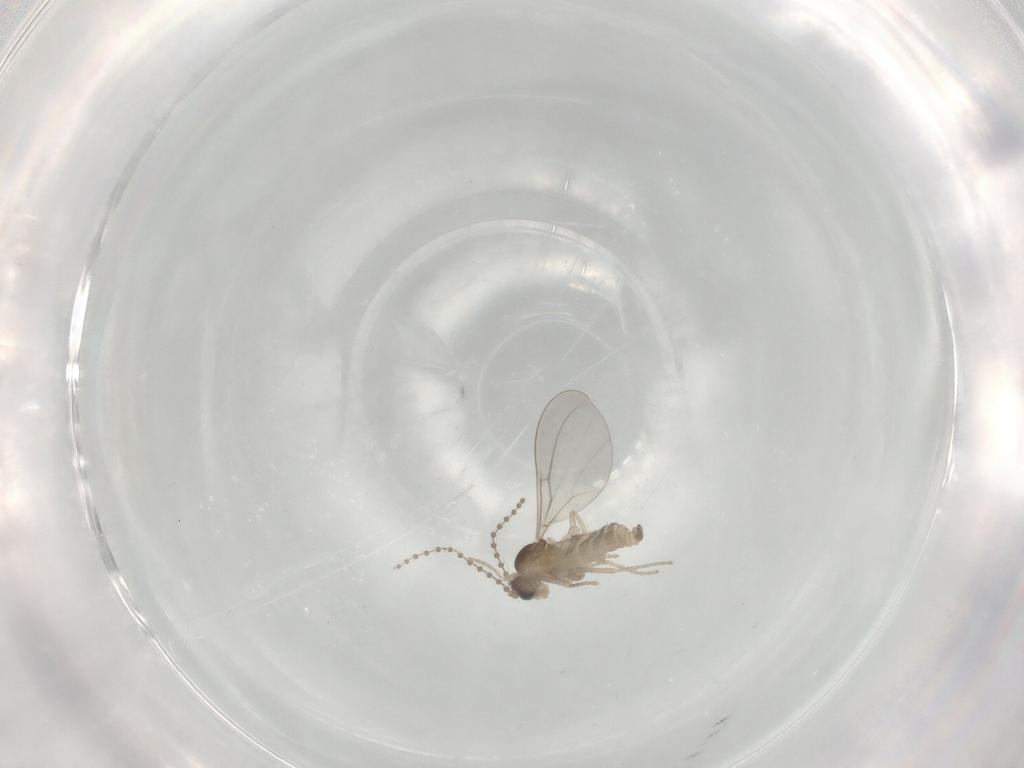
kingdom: Animalia
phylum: Arthropoda
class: Insecta
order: Diptera
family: Cecidomyiidae
